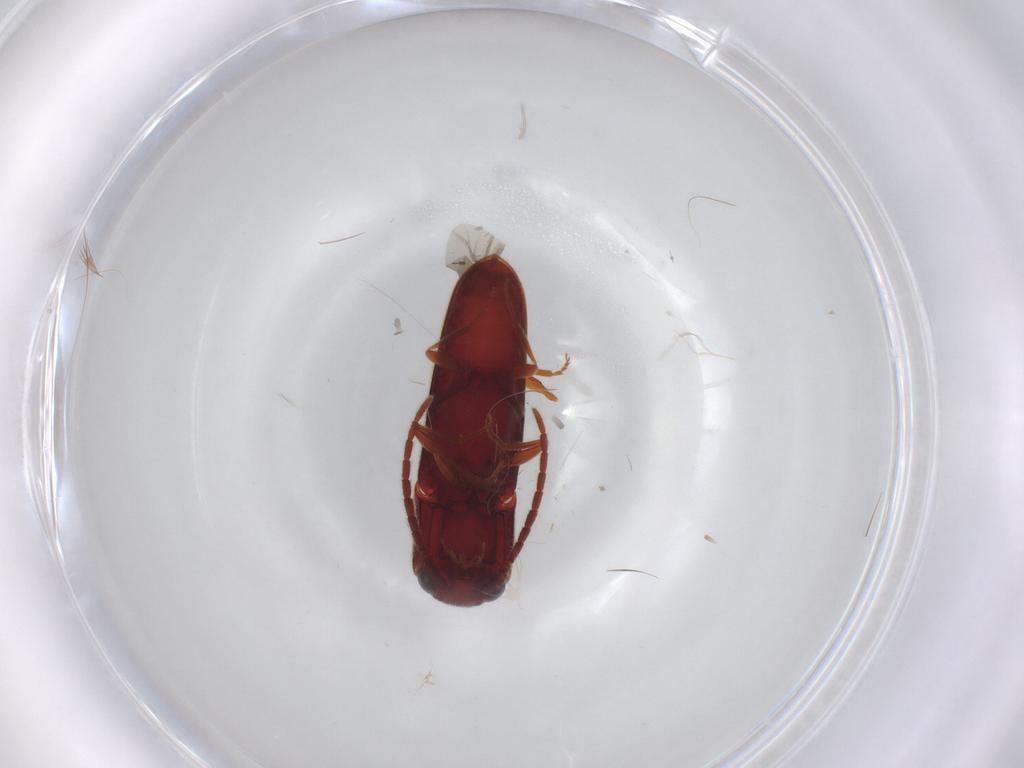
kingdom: Animalia
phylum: Arthropoda
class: Insecta
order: Coleoptera
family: Eucnemidae
